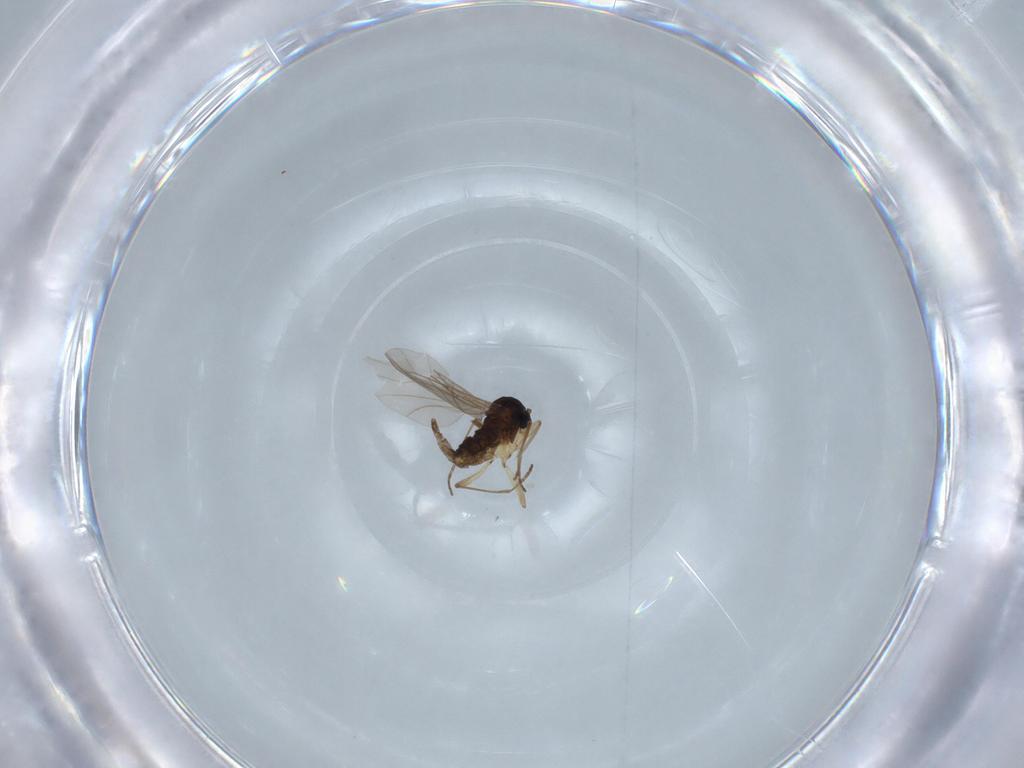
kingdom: Animalia
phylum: Arthropoda
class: Insecta
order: Diptera
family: Sciaridae
